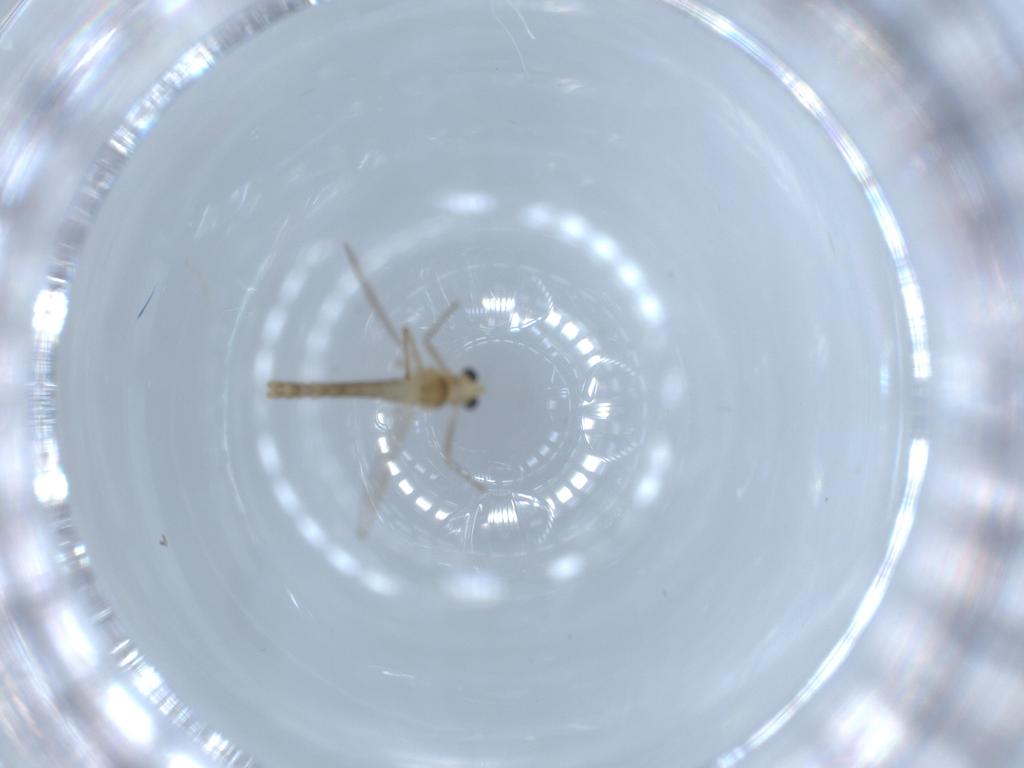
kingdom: Animalia
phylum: Arthropoda
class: Insecta
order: Diptera
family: Chironomidae
